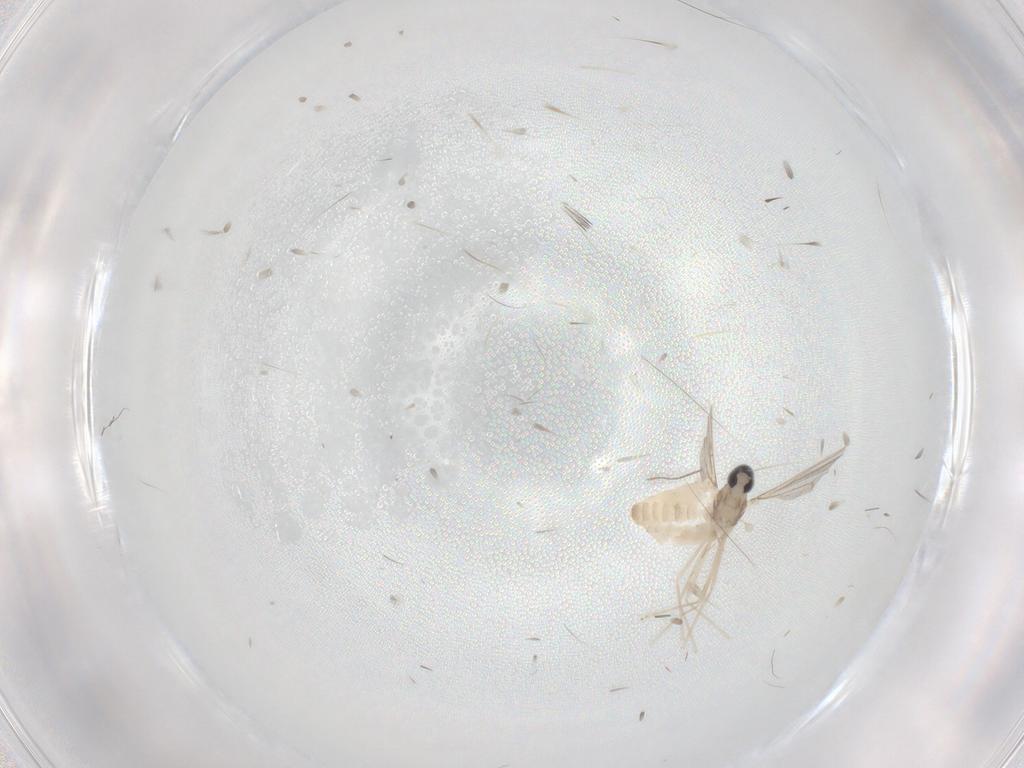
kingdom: Animalia
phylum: Arthropoda
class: Insecta
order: Diptera
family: Cecidomyiidae
